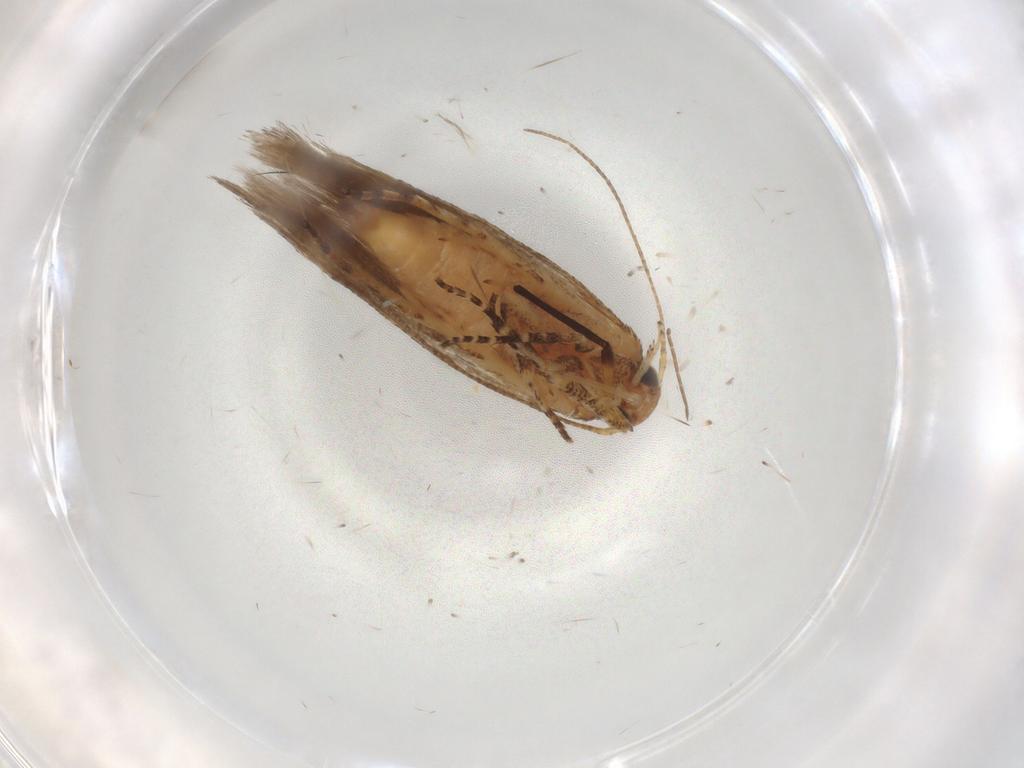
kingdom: Animalia
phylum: Arthropoda
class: Insecta
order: Lepidoptera
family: Gelechiidae
